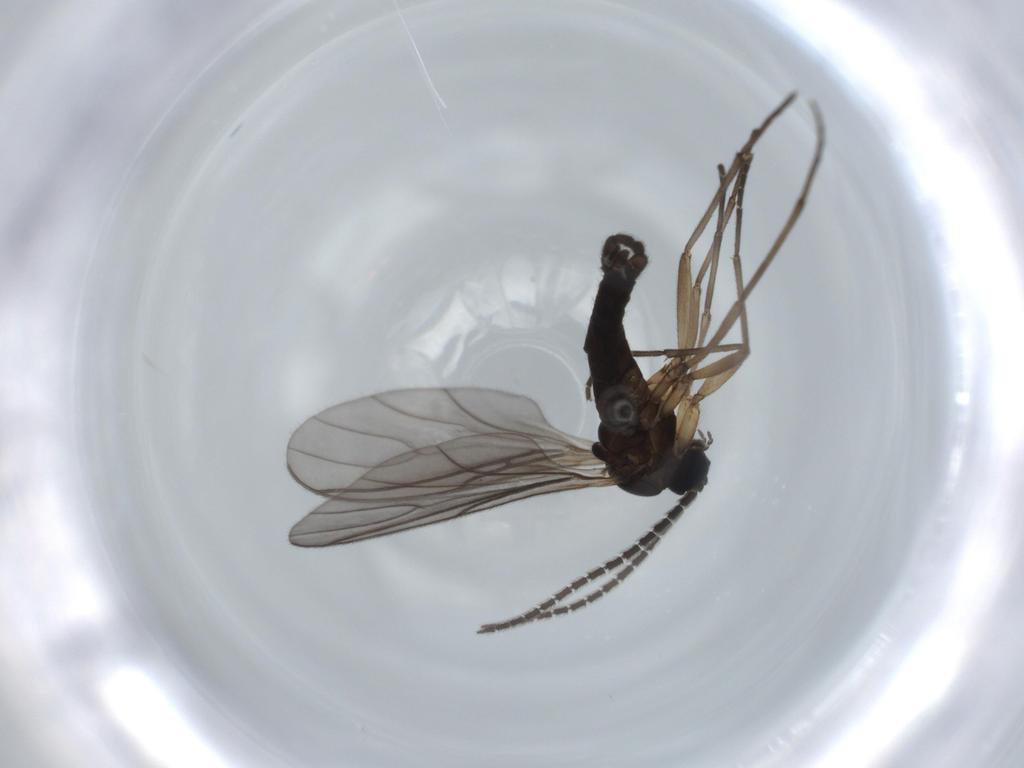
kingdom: Animalia
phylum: Arthropoda
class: Insecta
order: Diptera
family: Sciaridae
